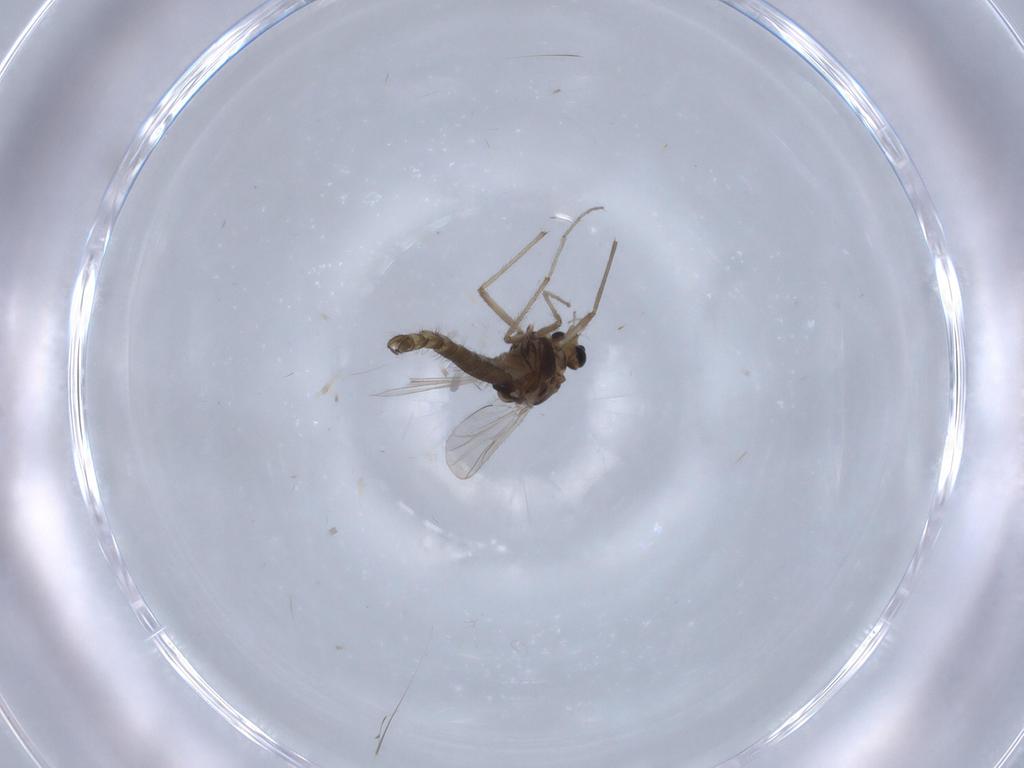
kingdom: Animalia
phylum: Arthropoda
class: Insecta
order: Diptera
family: Chironomidae
